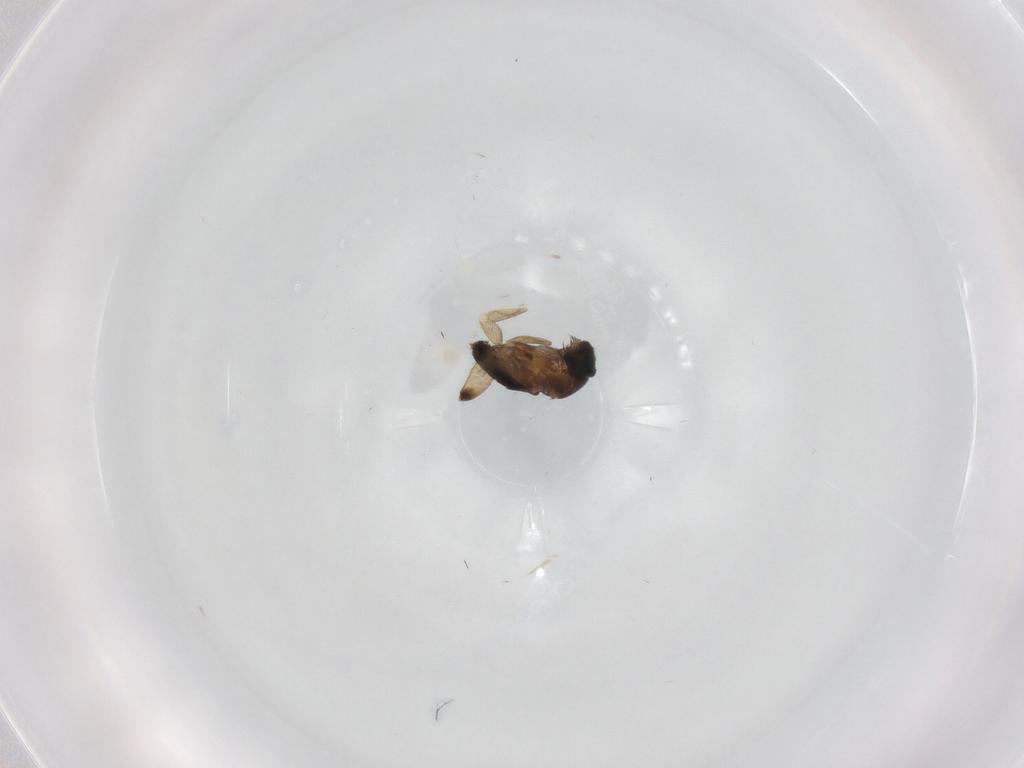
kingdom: Animalia
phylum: Arthropoda
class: Insecta
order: Diptera
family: Phoridae
